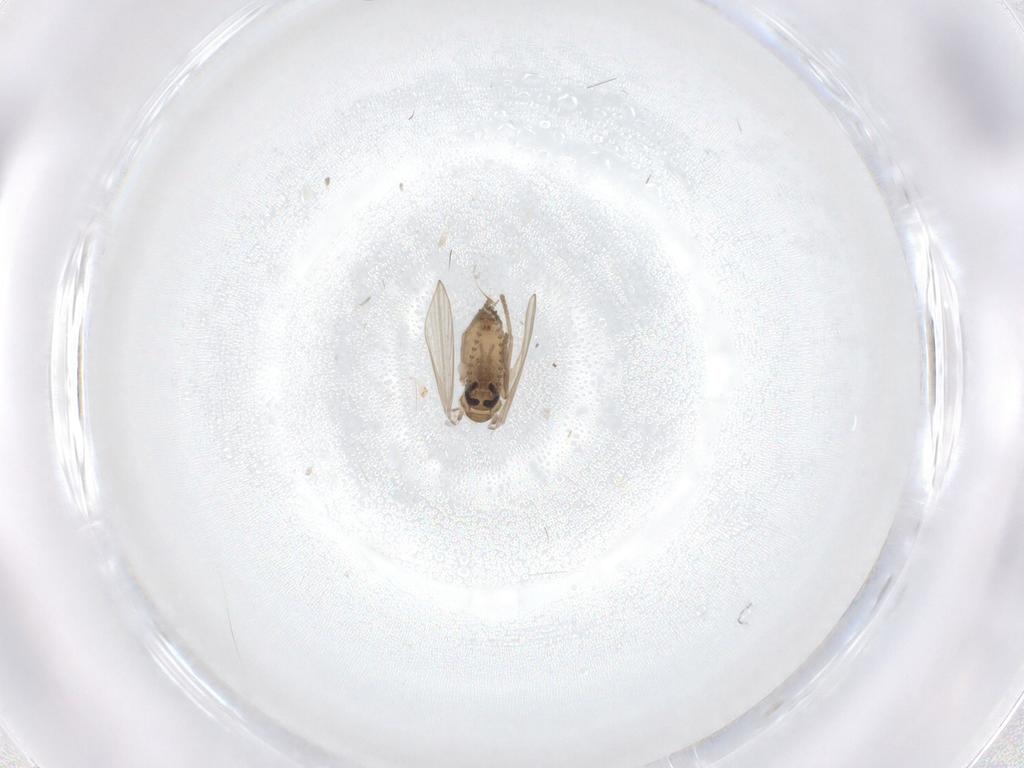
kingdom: Animalia
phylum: Arthropoda
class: Insecta
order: Diptera
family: Psychodidae
